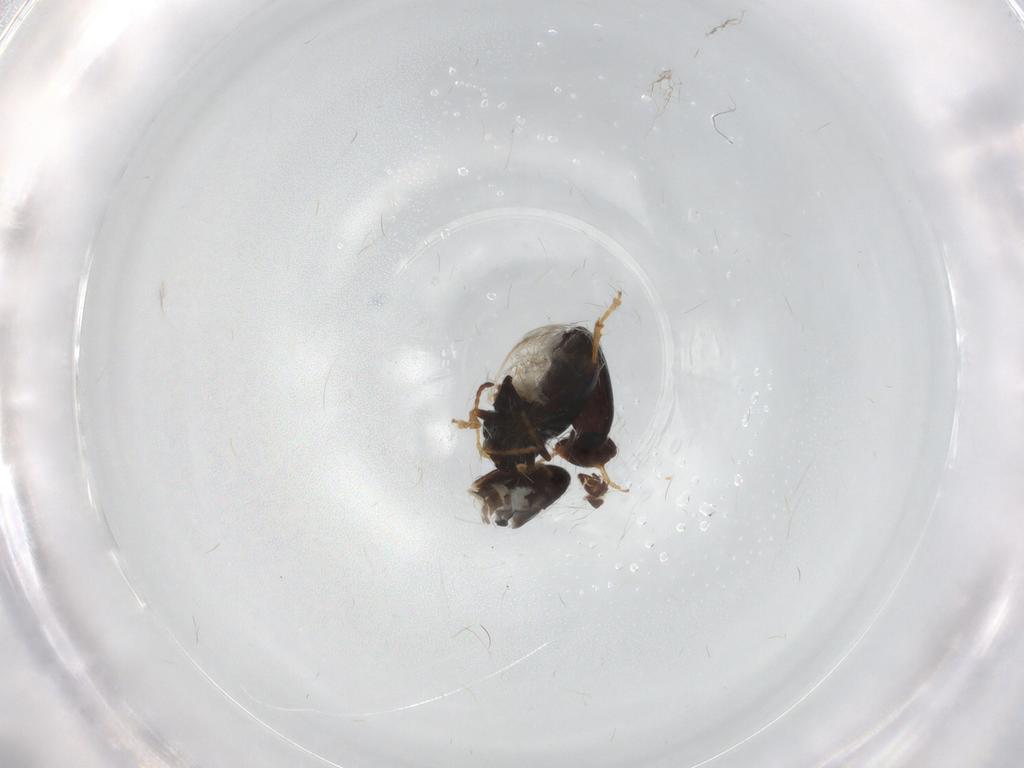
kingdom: Animalia
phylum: Arthropoda
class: Insecta
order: Coleoptera
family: Chrysomelidae
